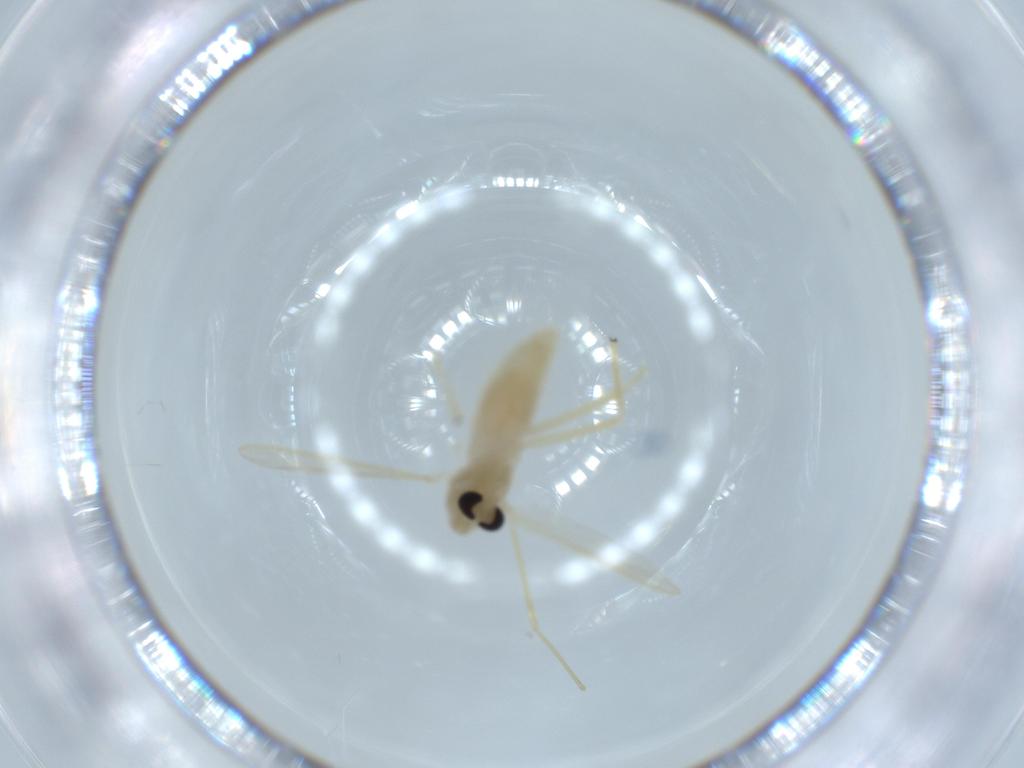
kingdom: Animalia
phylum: Arthropoda
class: Insecta
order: Diptera
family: Chironomidae
